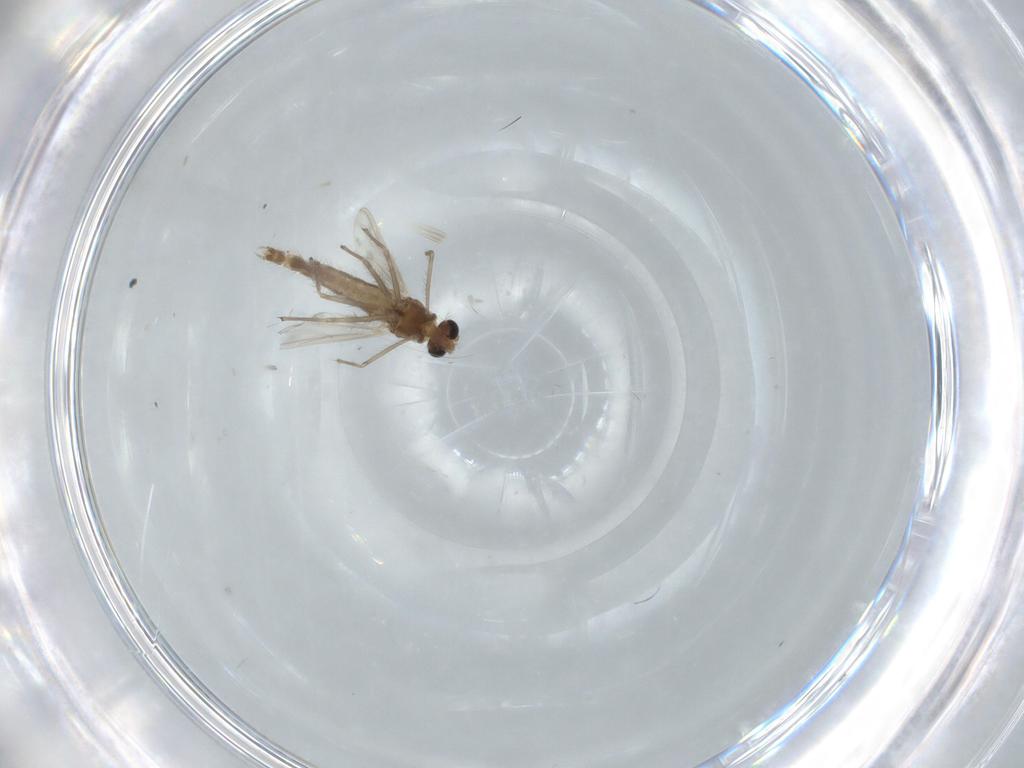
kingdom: Animalia
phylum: Arthropoda
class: Insecta
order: Diptera
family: Chironomidae
